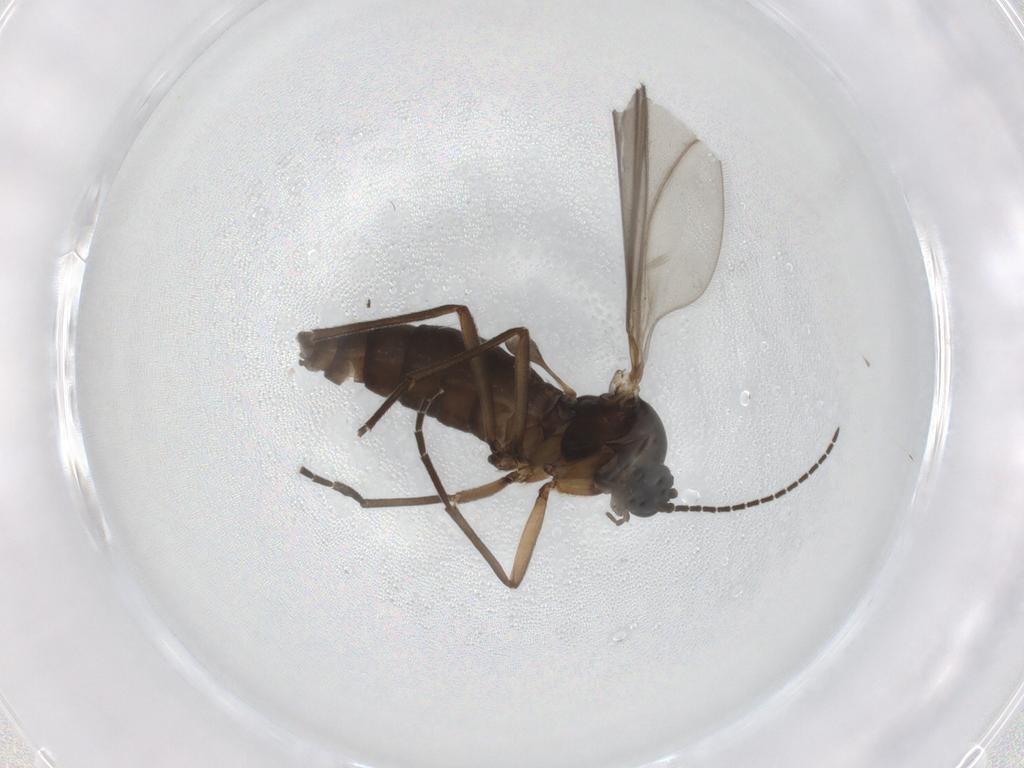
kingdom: Animalia
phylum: Arthropoda
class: Insecta
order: Diptera
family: Sciaridae
